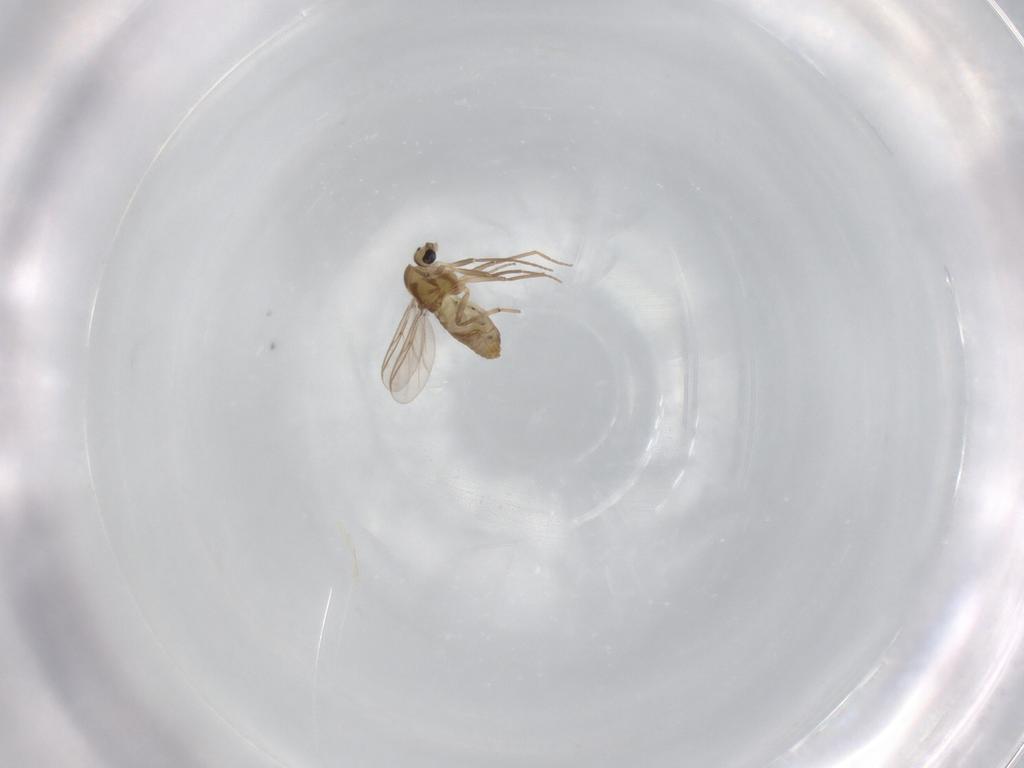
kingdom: Animalia
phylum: Arthropoda
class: Insecta
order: Diptera
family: Chironomidae
